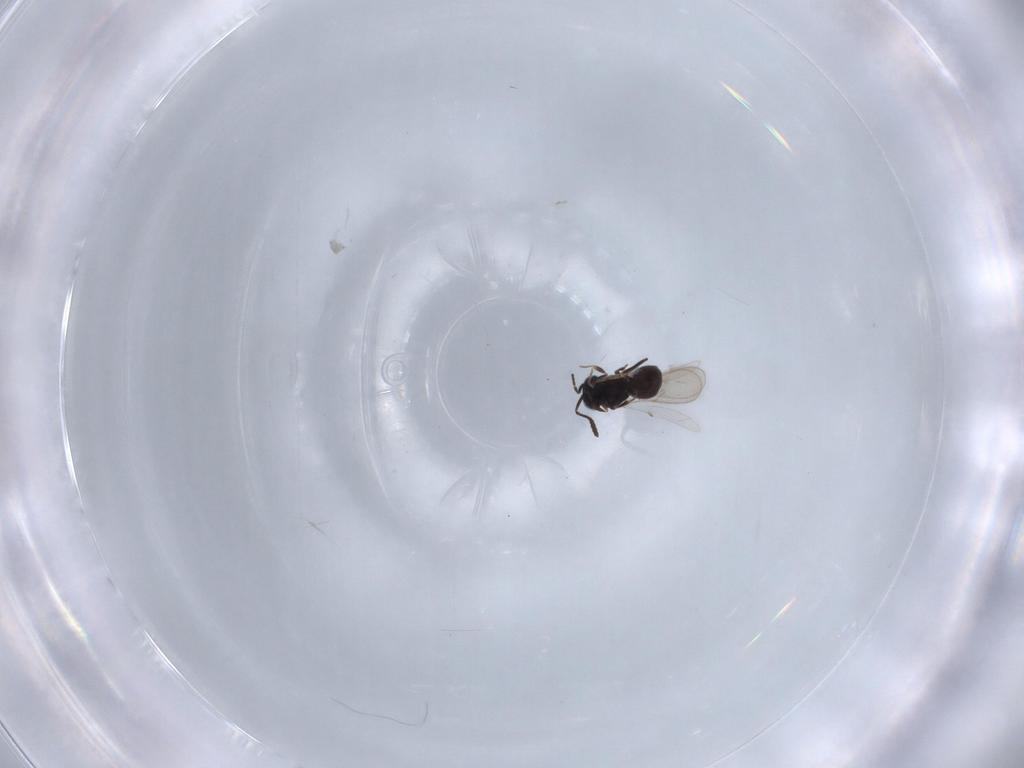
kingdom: Animalia
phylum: Arthropoda
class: Insecta
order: Hymenoptera
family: Scelionidae
